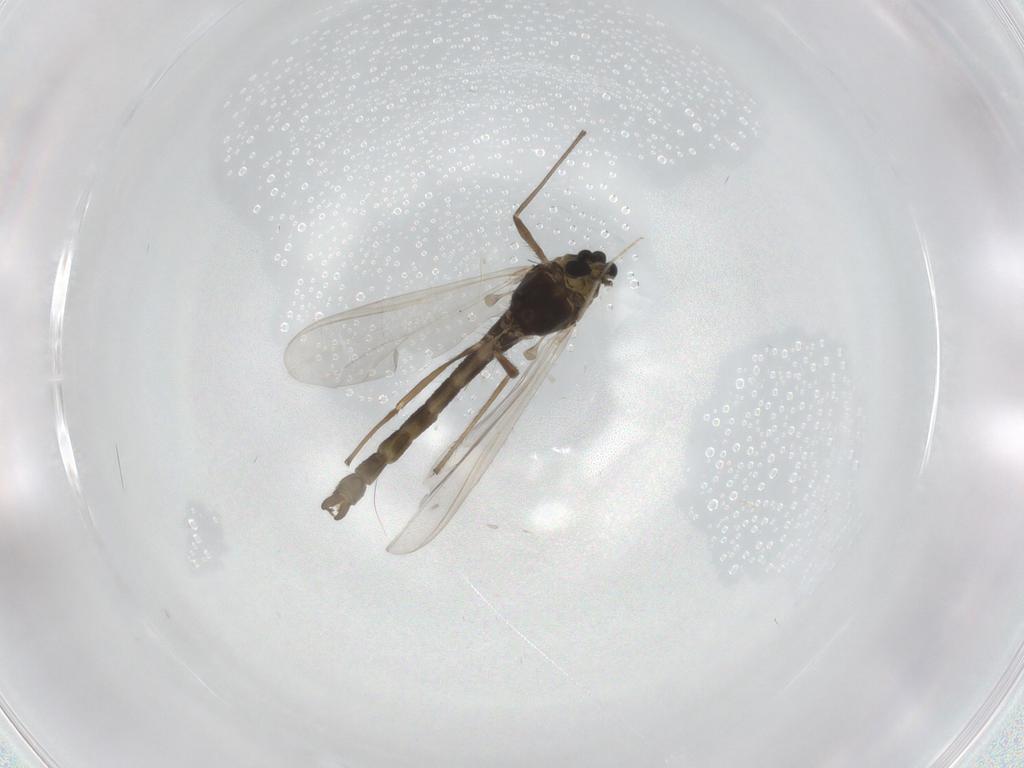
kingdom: Animalia
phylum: Arthropoda
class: Insecta
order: Diptera
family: Chironomidae
